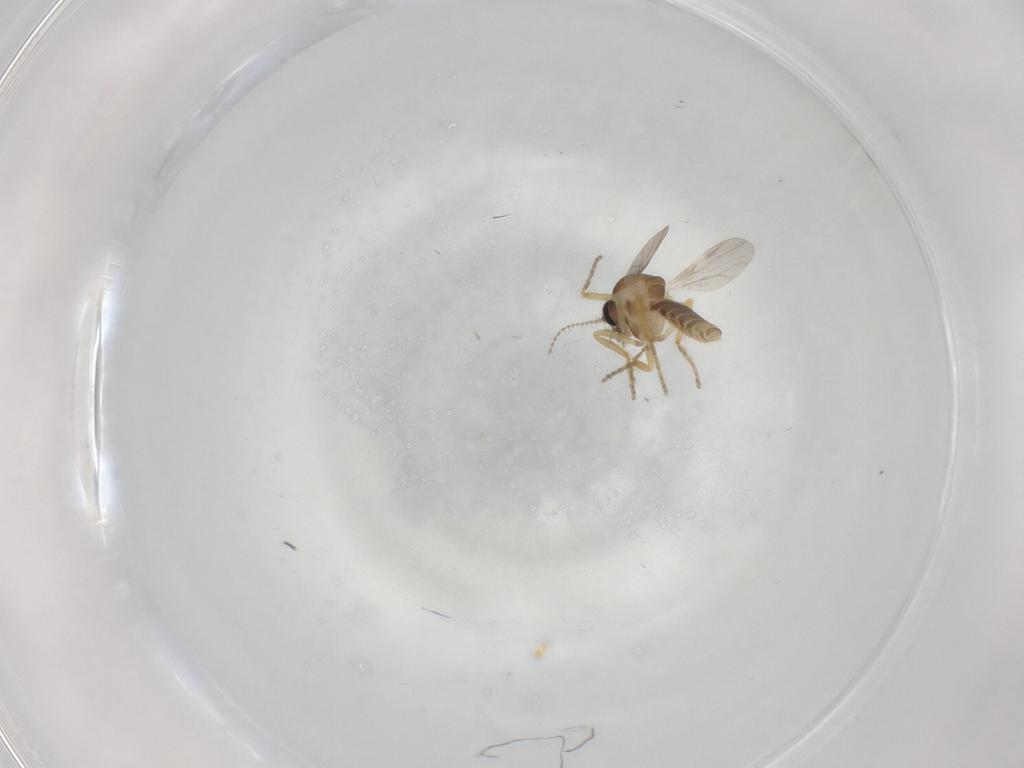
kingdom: Animalia
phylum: Arthropoda
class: Insecta
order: Diptera
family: Ceratopogonidae
